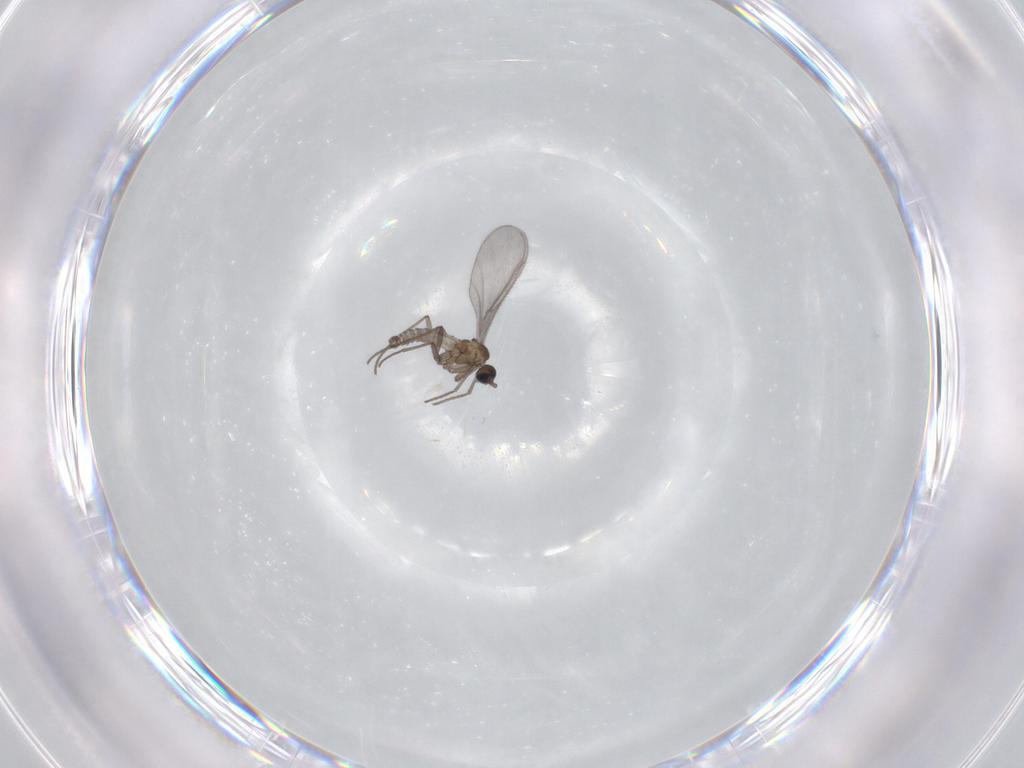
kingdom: Animalia
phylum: Arthropoda
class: Insecta
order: Diptera
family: Sciaridae
